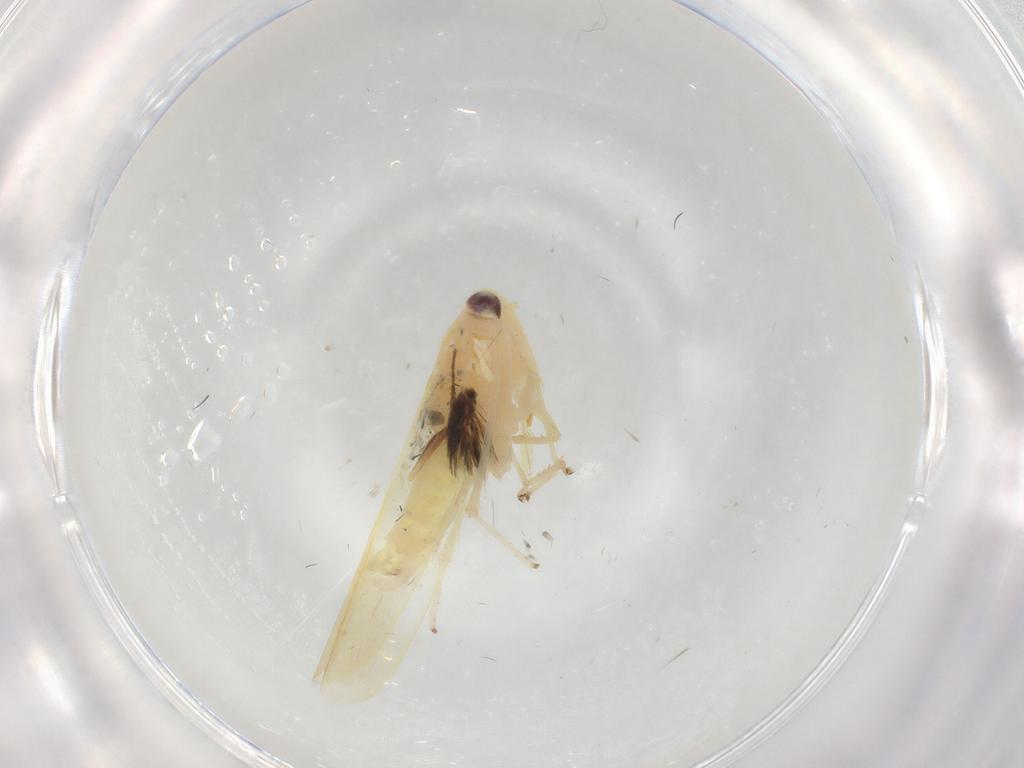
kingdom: Animalia
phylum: Arthropoda
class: Insecta
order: Hemiptera
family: Cicadellidae
